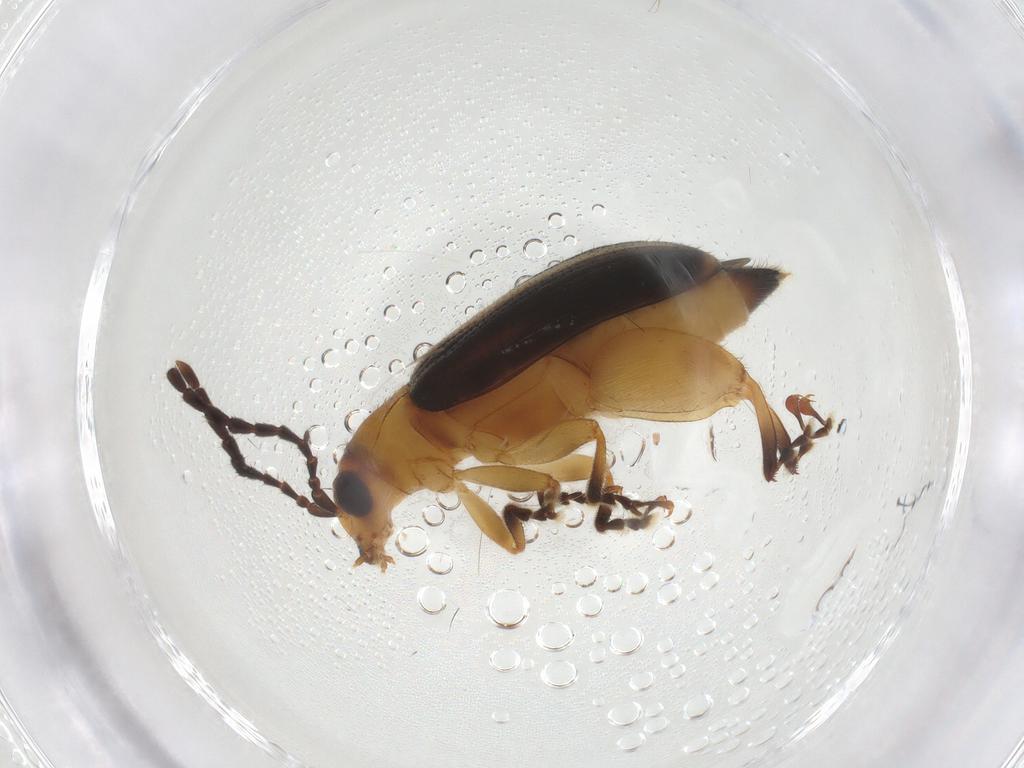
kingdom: Animalia
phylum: Arthropoda
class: Insecta
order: Coleoptera
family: Chrysomelidae
